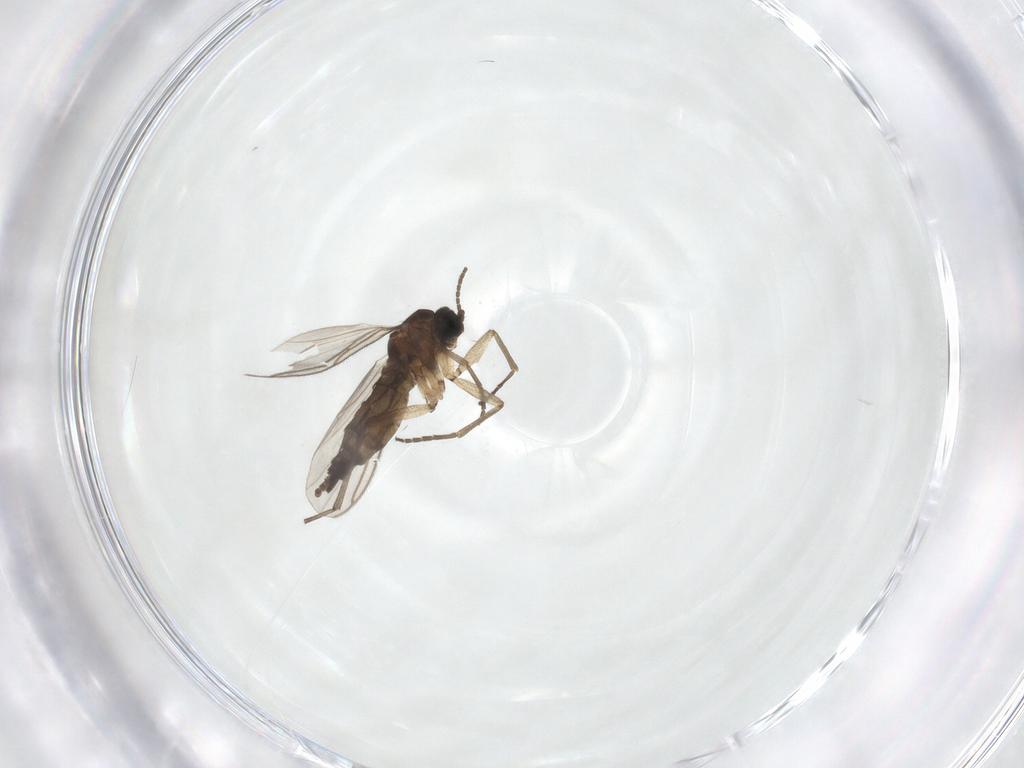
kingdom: Animalia
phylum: Arthropoda
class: Insecta
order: Diptera
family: Sciaridae
